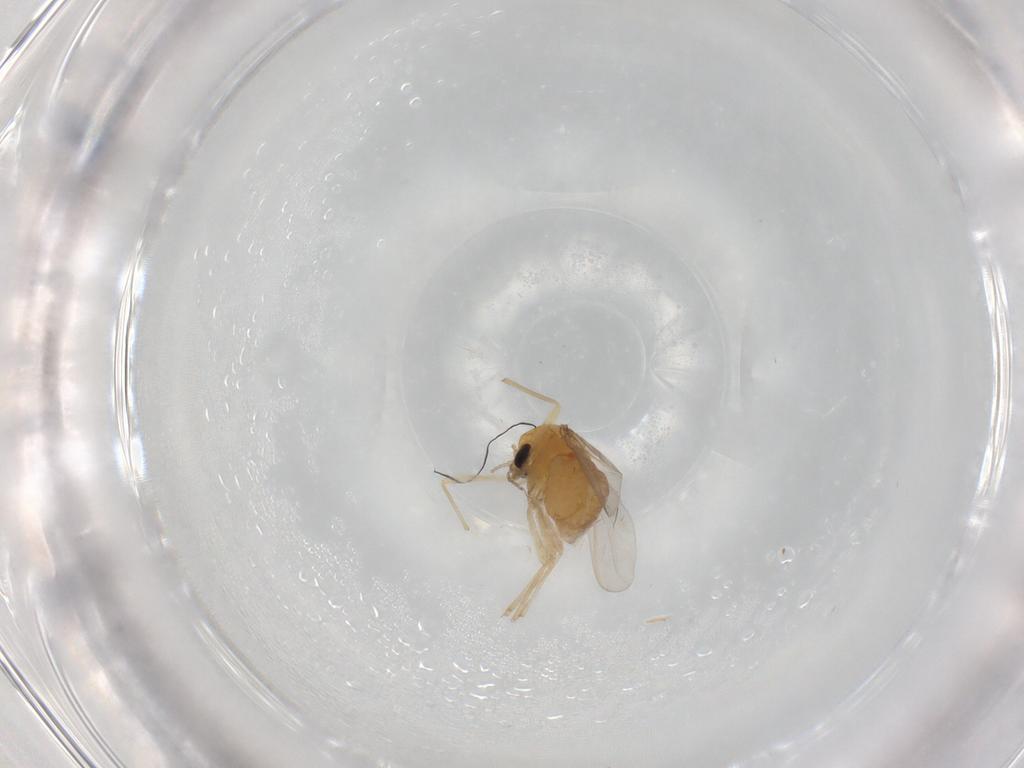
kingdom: Animalia
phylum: Arthropoda
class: Insecta
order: Diptera
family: Chironomidae
